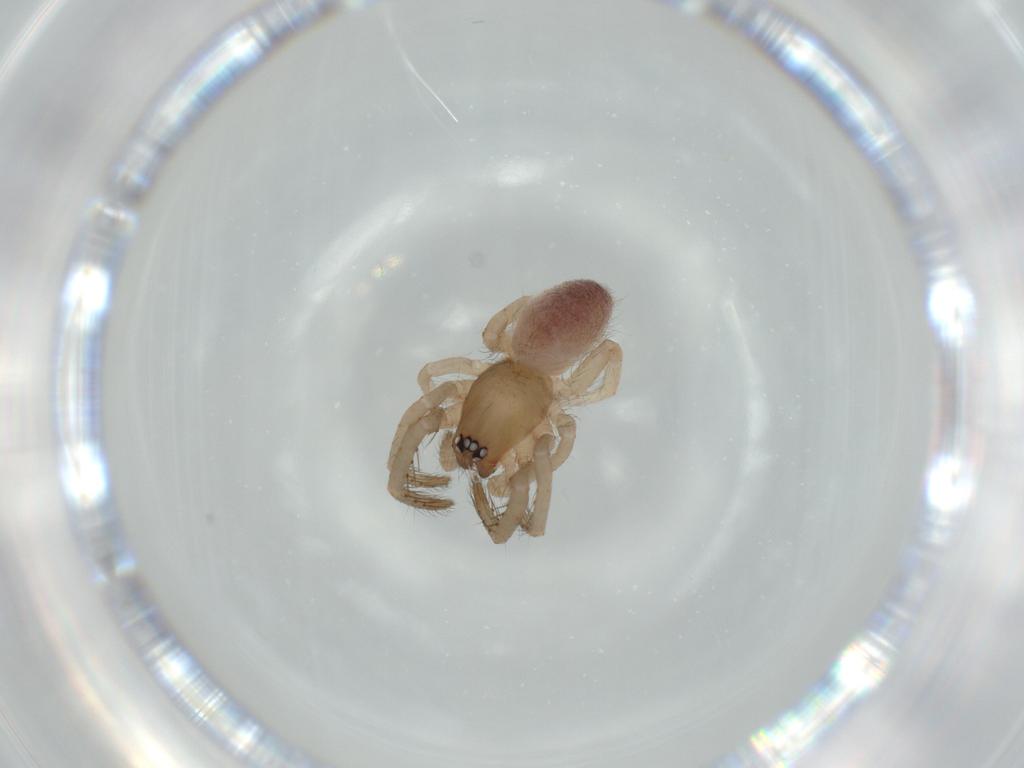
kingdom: Animalia
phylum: Arthropoda
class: Arachnida
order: Araneae
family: Segestriidae
